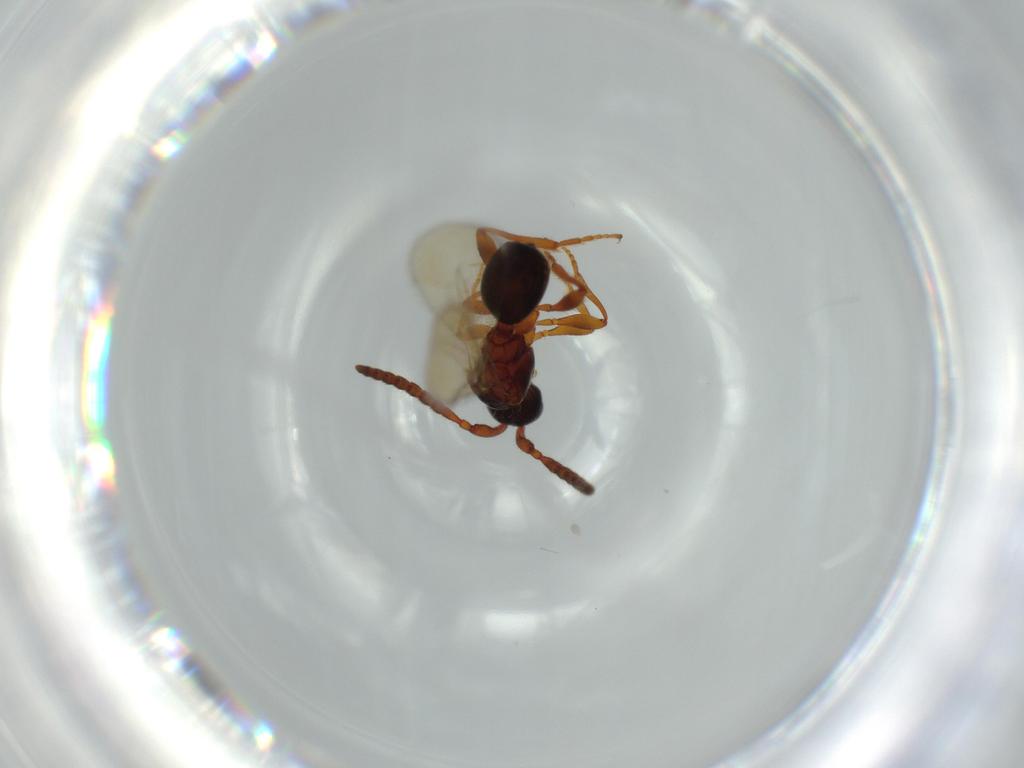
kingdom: Animalia
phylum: Arthropoda
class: Insecta
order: Hymenoptera
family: Diapriidae
